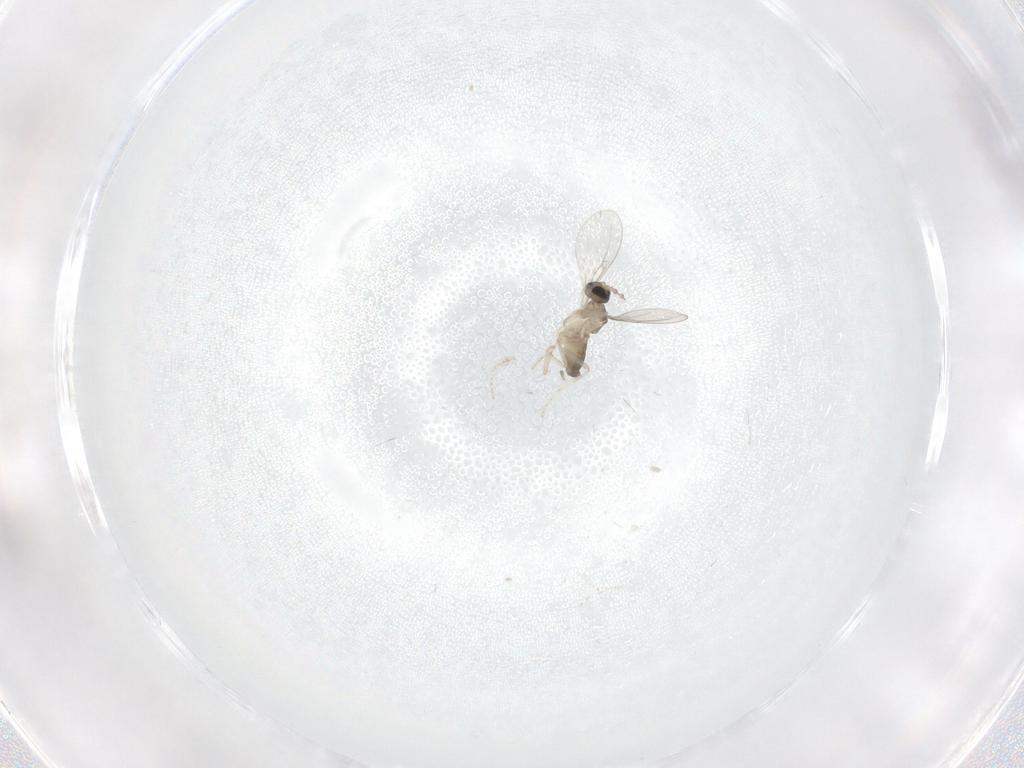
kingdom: Animalia
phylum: Arthropoda
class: Insecta
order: Diptera
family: Cecidomyiidae
